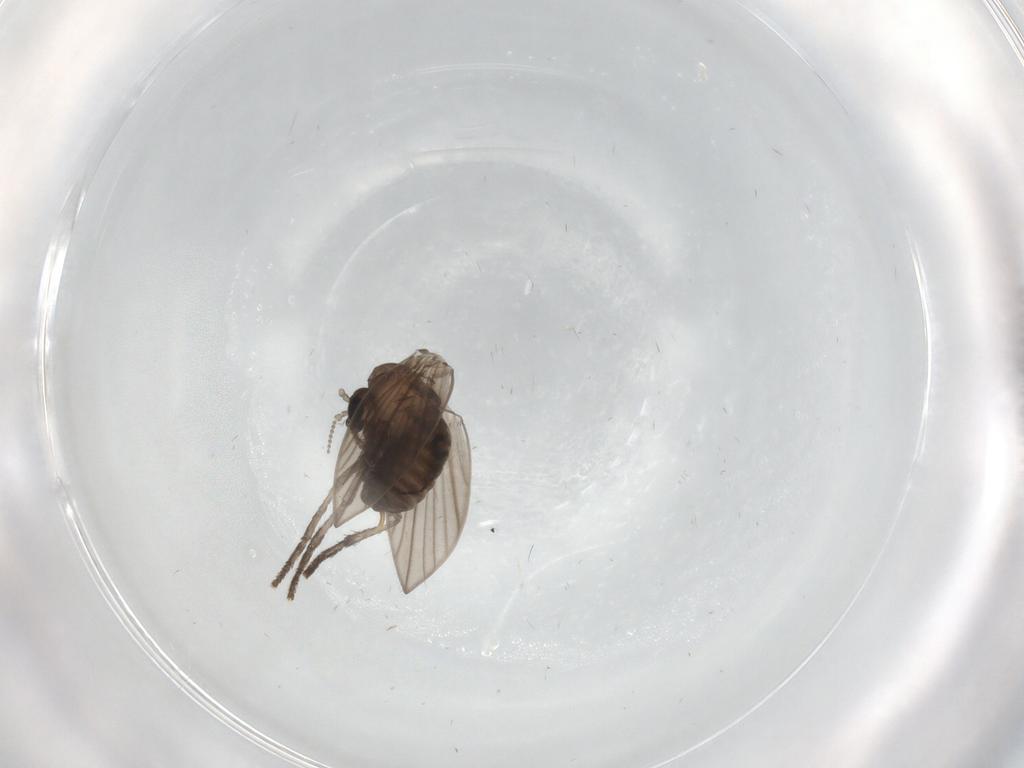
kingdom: Animalia
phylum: Arthropoda
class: Insecta
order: Diptera
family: Psychodidae
